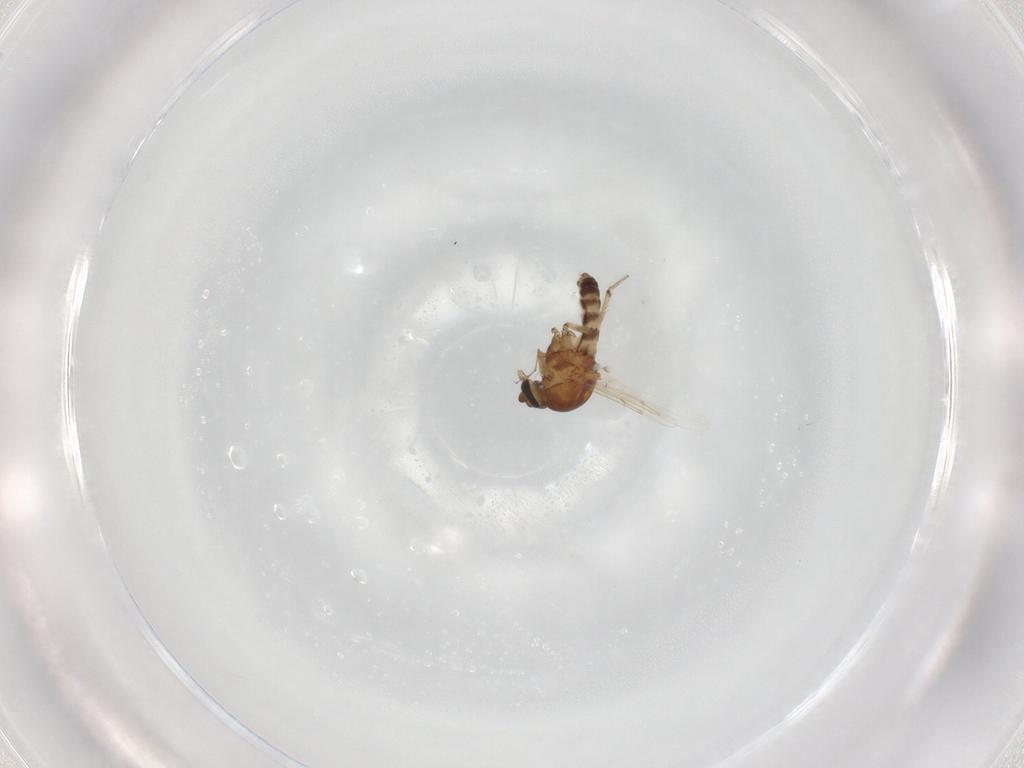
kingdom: Animalia
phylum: Arthropoda
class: Insecta
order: Diptera
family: Ceratopogonidae
